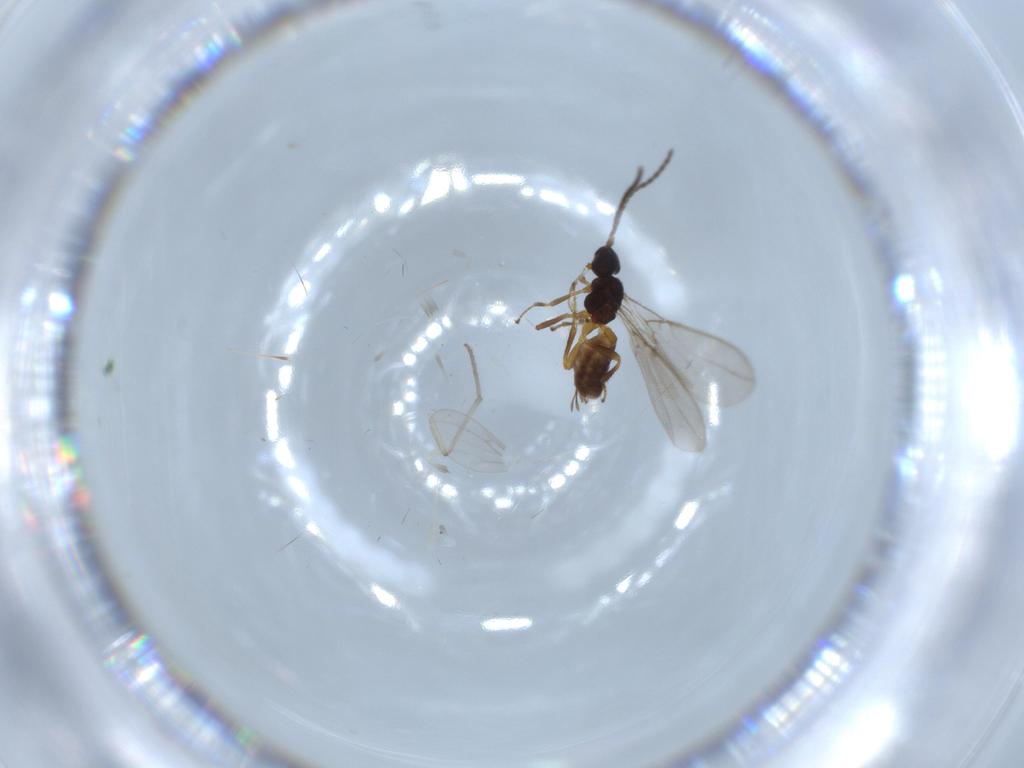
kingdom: Animalia
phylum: Arthropoda
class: Insecta
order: Hymenoptera
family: Braconidae
